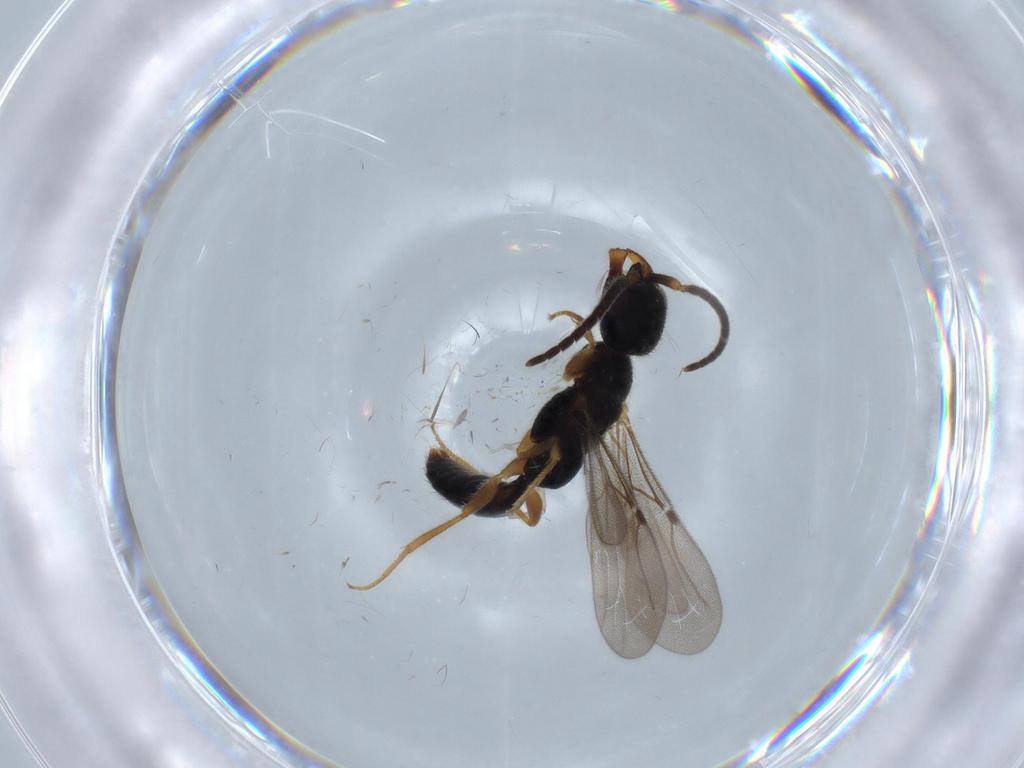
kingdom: Animalia
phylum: Arthropoda
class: Insecta
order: Hymenoptera
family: Bethylidae
